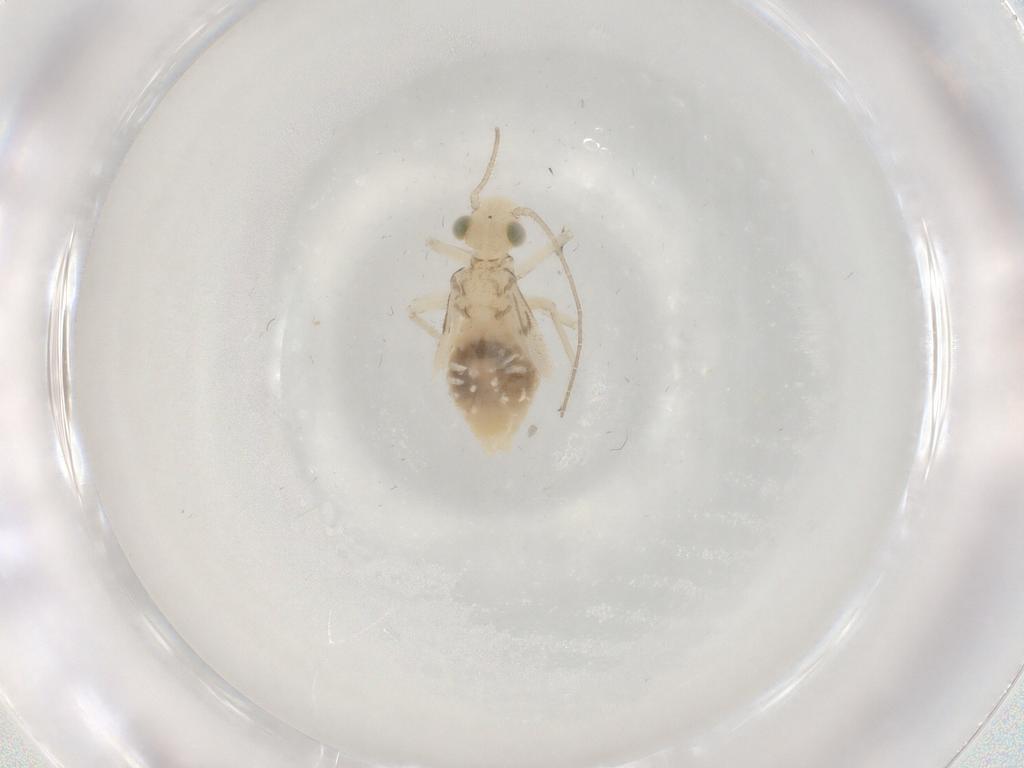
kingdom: Animalia
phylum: Arthropoda
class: Insecta
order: Psocodea
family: Caeciliusidae
